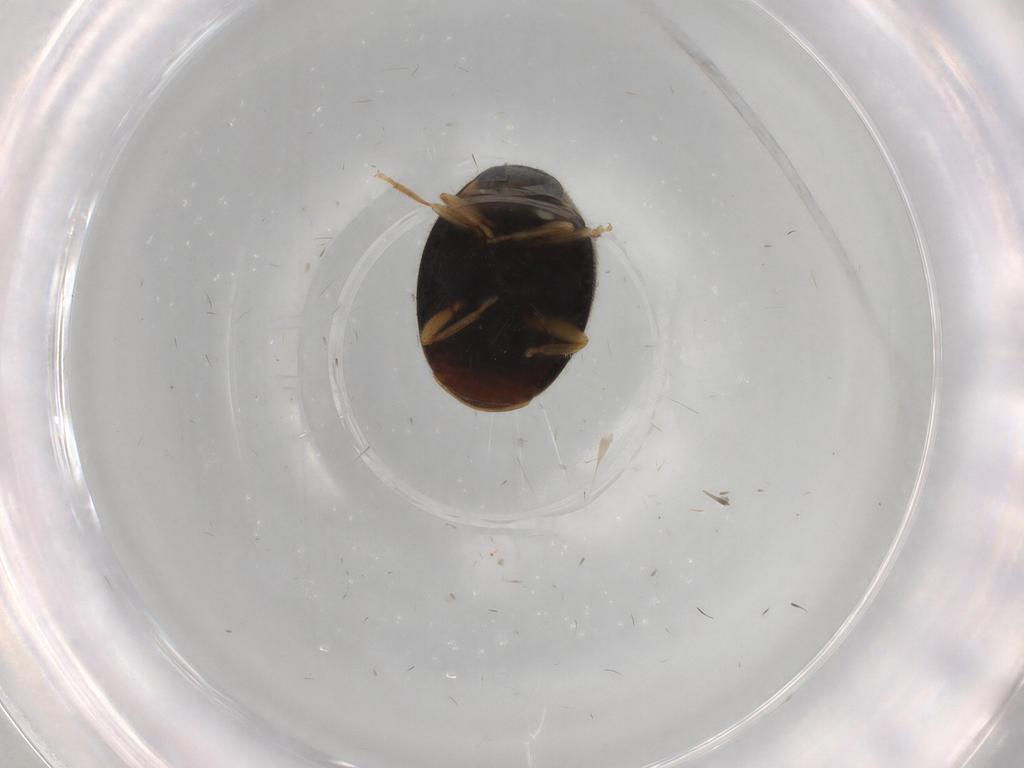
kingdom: Animalia
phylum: Arthropoda
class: Insecta
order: Coleoptera
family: Coccinellidae
